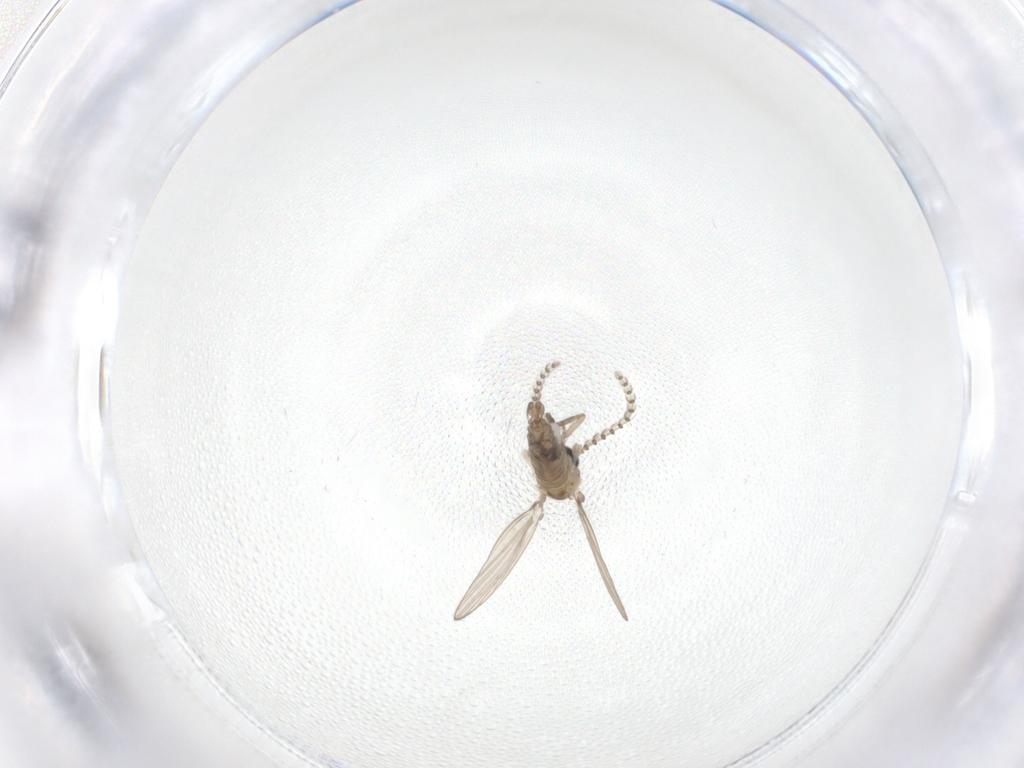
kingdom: Animalia
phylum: Arthropoda
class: Insecta
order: Diptera
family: Psychodidae
